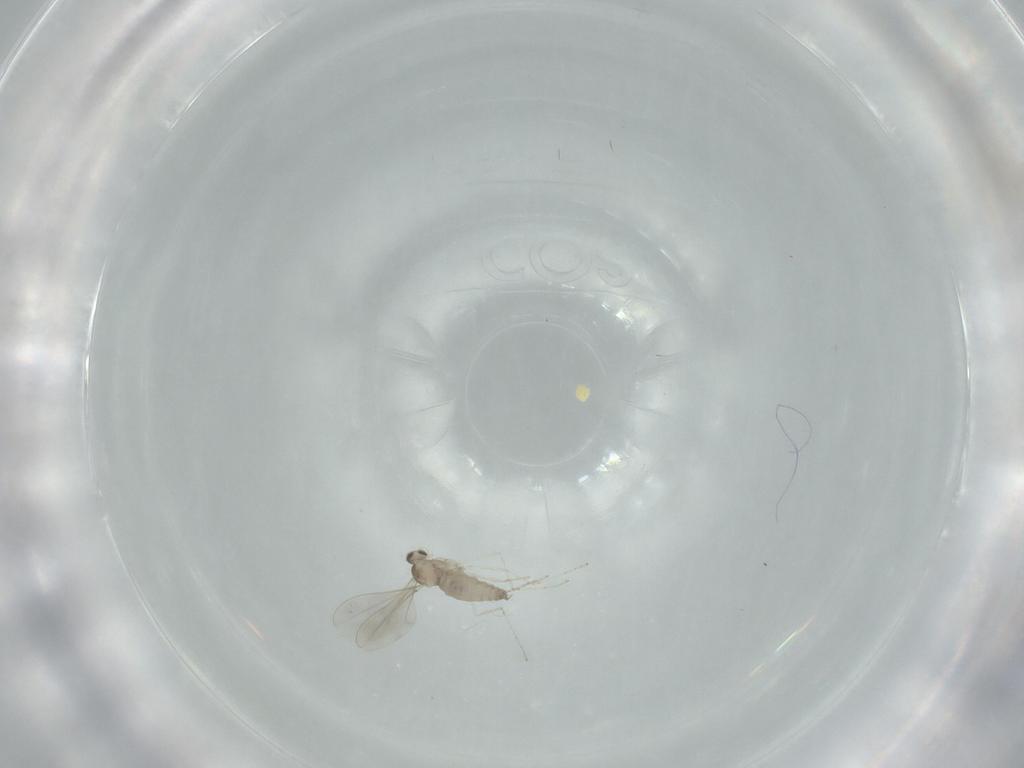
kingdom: Animalia
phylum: Arthropoda
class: Insecta
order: Diptera
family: Cecidomyiidae
